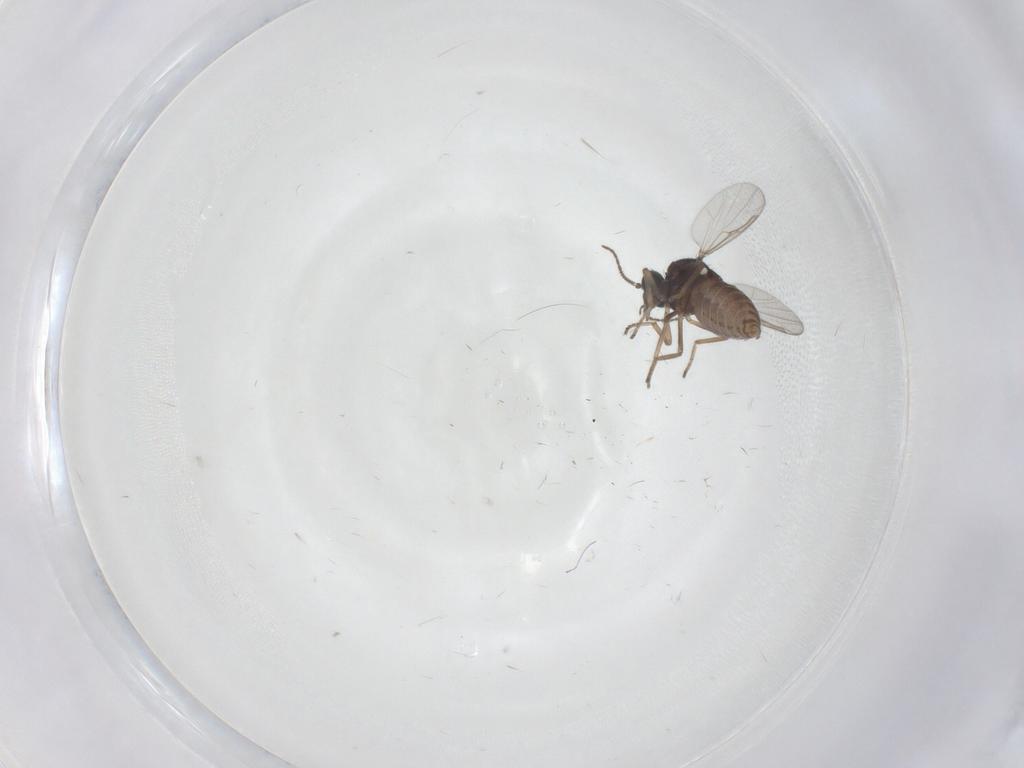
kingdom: Animalia
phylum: Arthropoda
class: Insecta
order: Diptera
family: Ceratopogonidae
